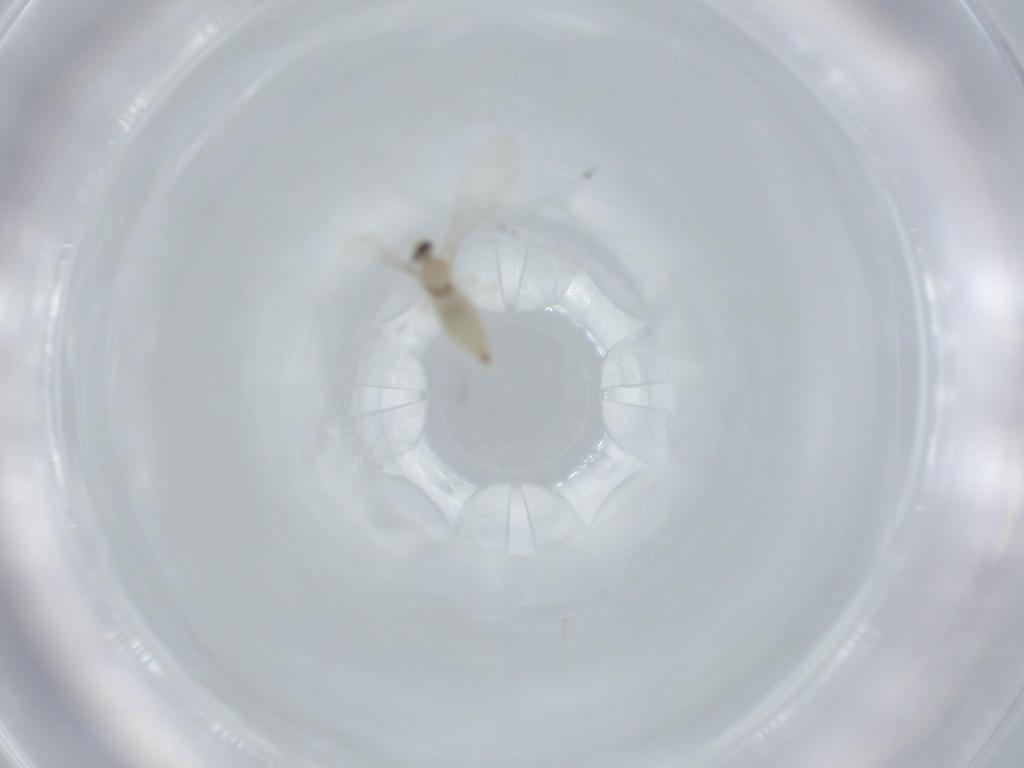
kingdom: Animalia
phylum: Arthropoda
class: Insecta
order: Diptera
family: Cecidomyiidae
